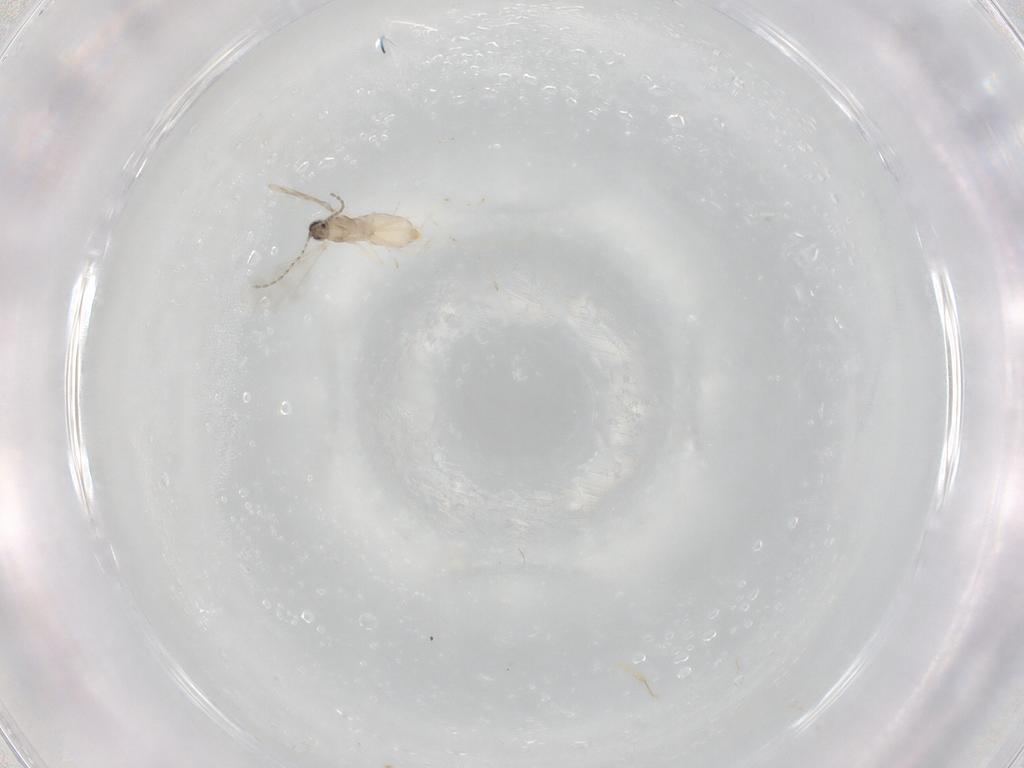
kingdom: Animalia
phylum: Arthropoda
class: Insecta
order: Diptera
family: Cecidomyiidae
